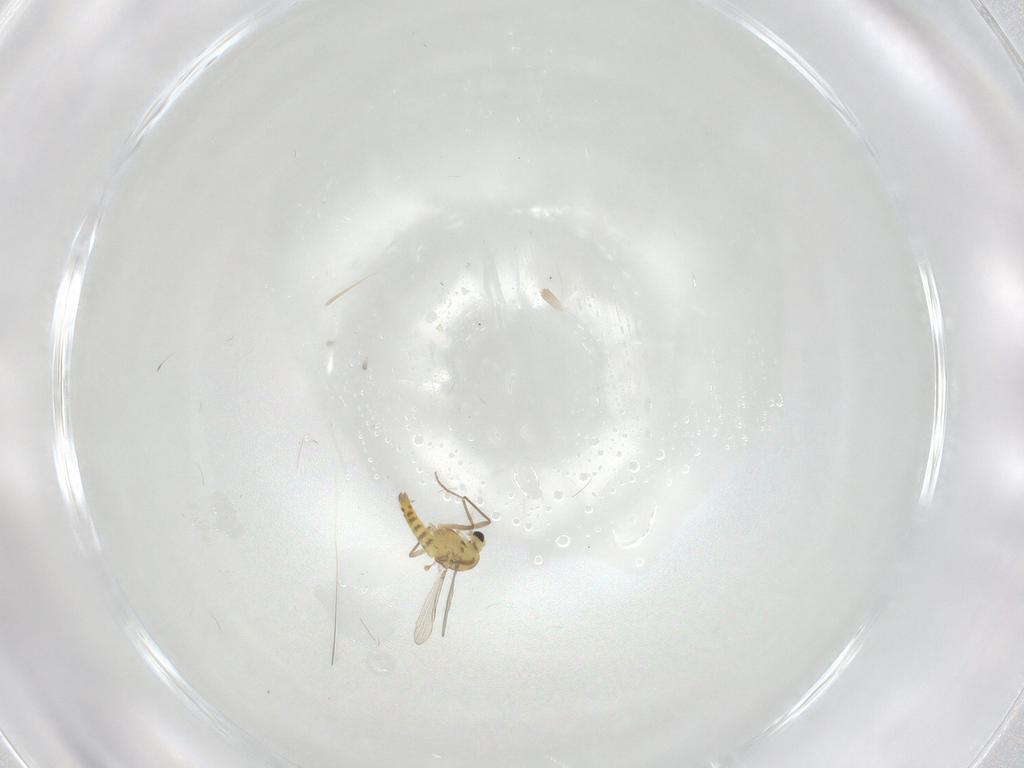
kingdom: Animalia
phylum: Arthropoda
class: Insecta
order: Diptera
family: Chironomidae
